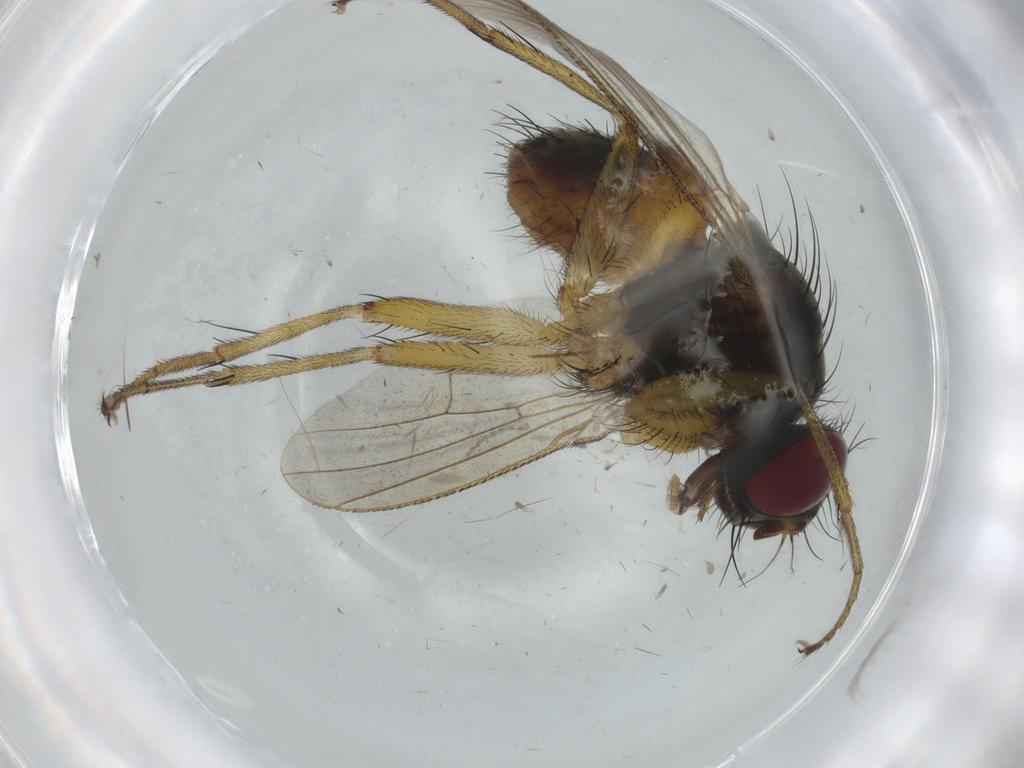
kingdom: Animalia
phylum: Arthropoda
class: Insecta
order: Diptera
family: Muscidae
